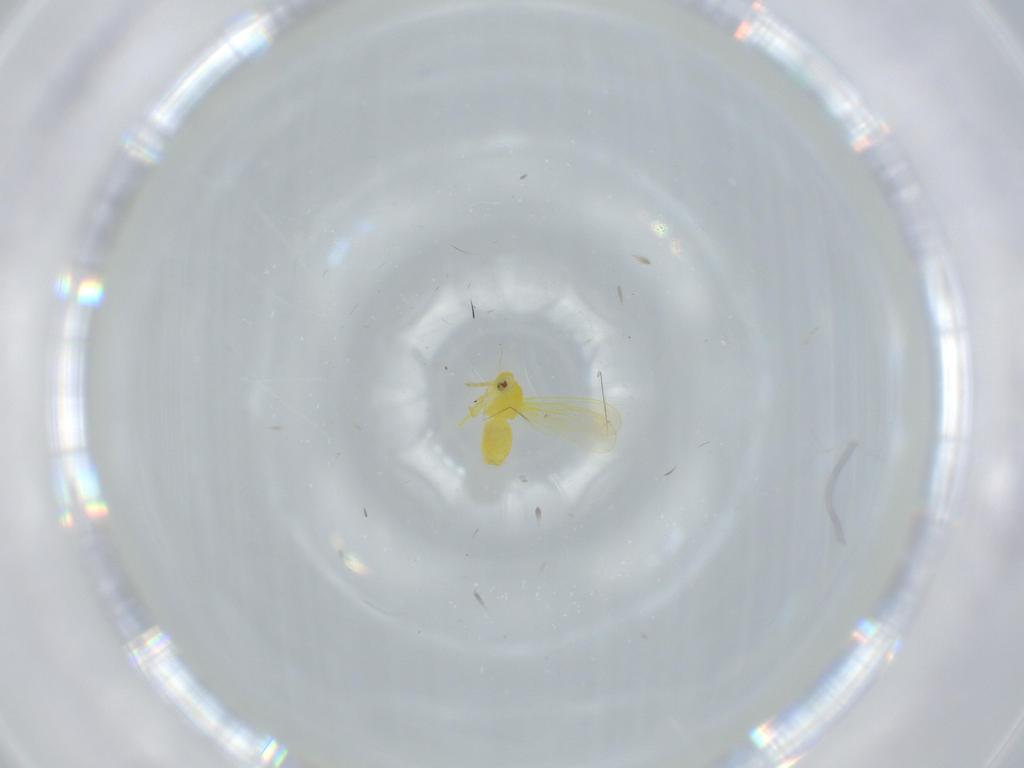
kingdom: Animalia
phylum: Arthropoda
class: Insecta
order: Hemiptera
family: Aleyrodidae
